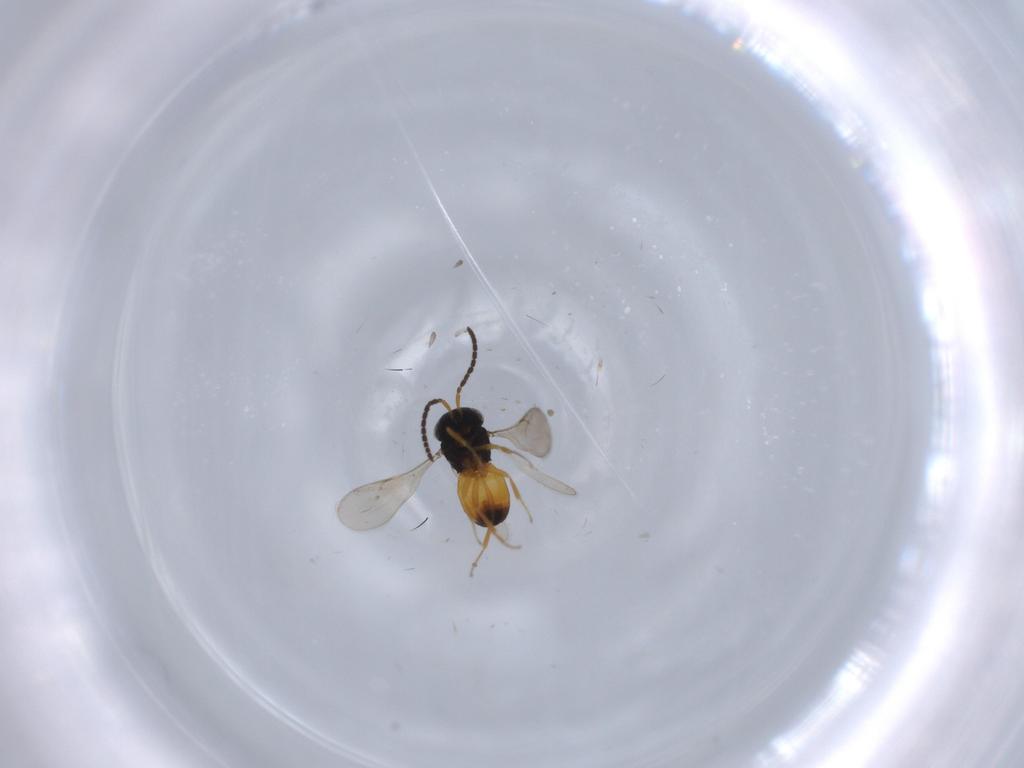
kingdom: Animalia
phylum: Arthropoda
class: Insecta
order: Hymenoptera
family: Scelionidae
